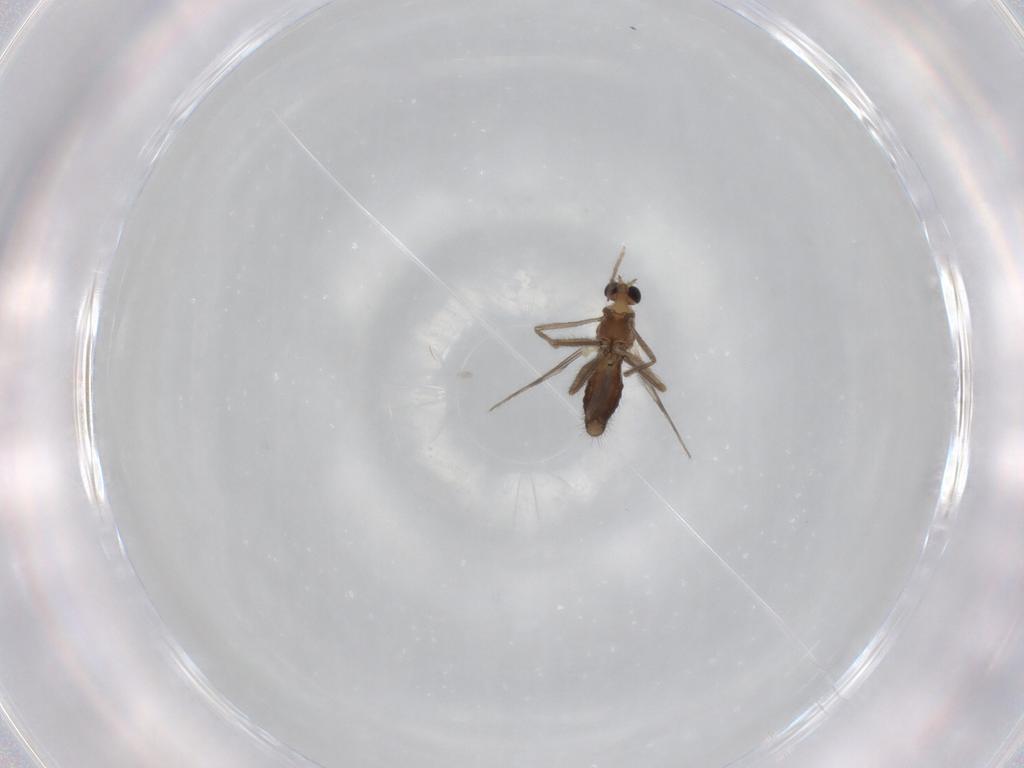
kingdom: Animalia
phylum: Arthropoda
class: Insecta
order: Diptera
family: Chironomidae
